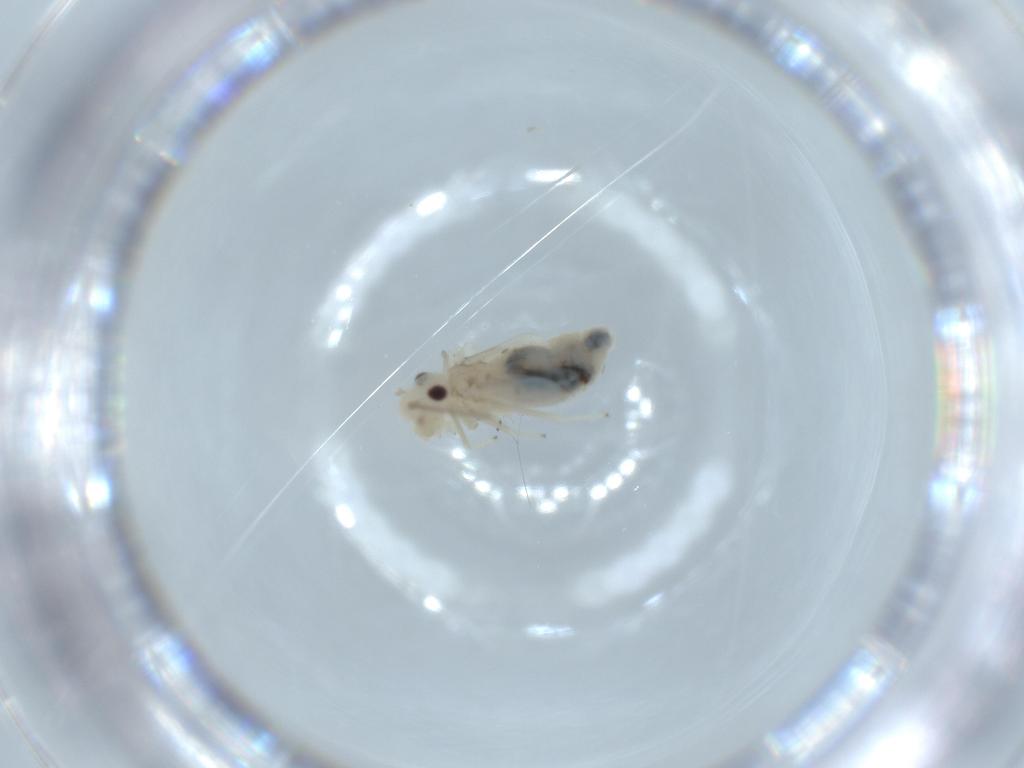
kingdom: Animalia
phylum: Arthropoda
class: Insecta
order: Psocodea
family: Caeciliusidae
